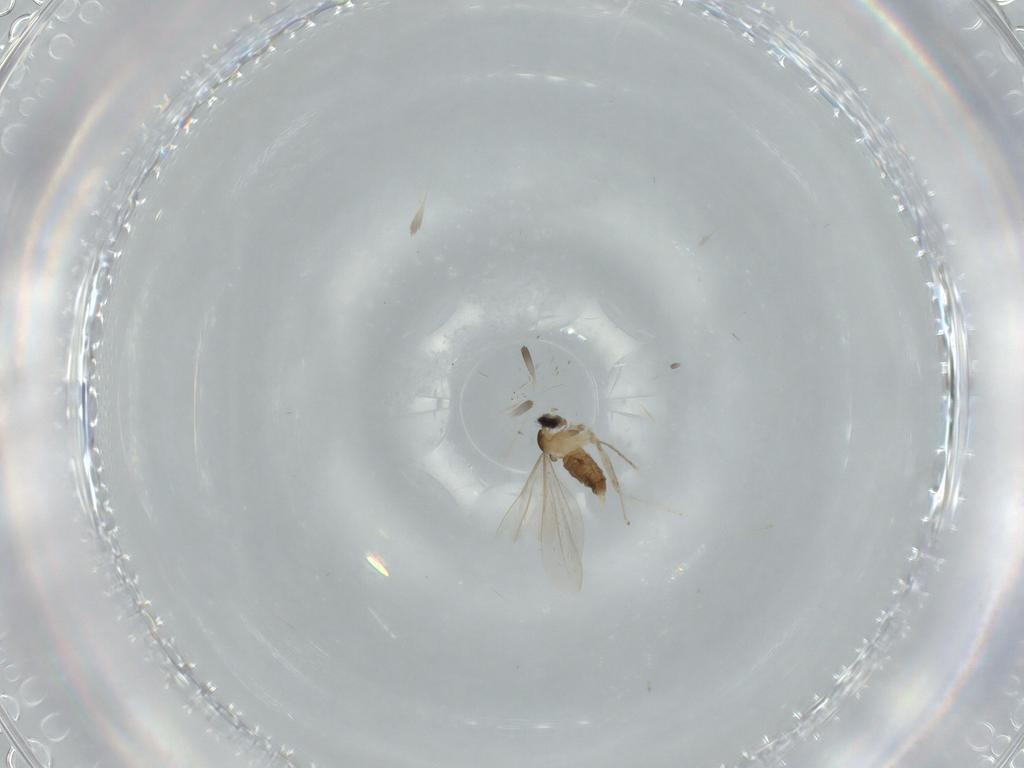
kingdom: Animalia
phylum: Arthropoda
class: Insecta
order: Diptera
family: Cecidomyiidae
